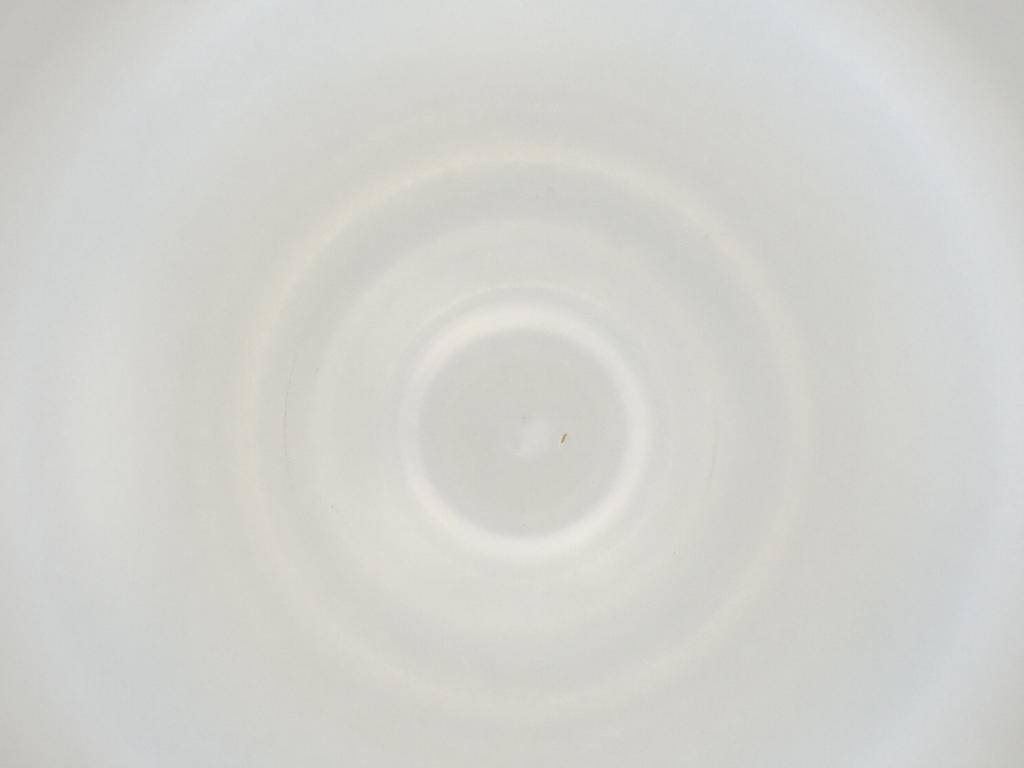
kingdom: Animalia
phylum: Arthropoda
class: Insecta
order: Diptera
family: Cecidomyiidae
